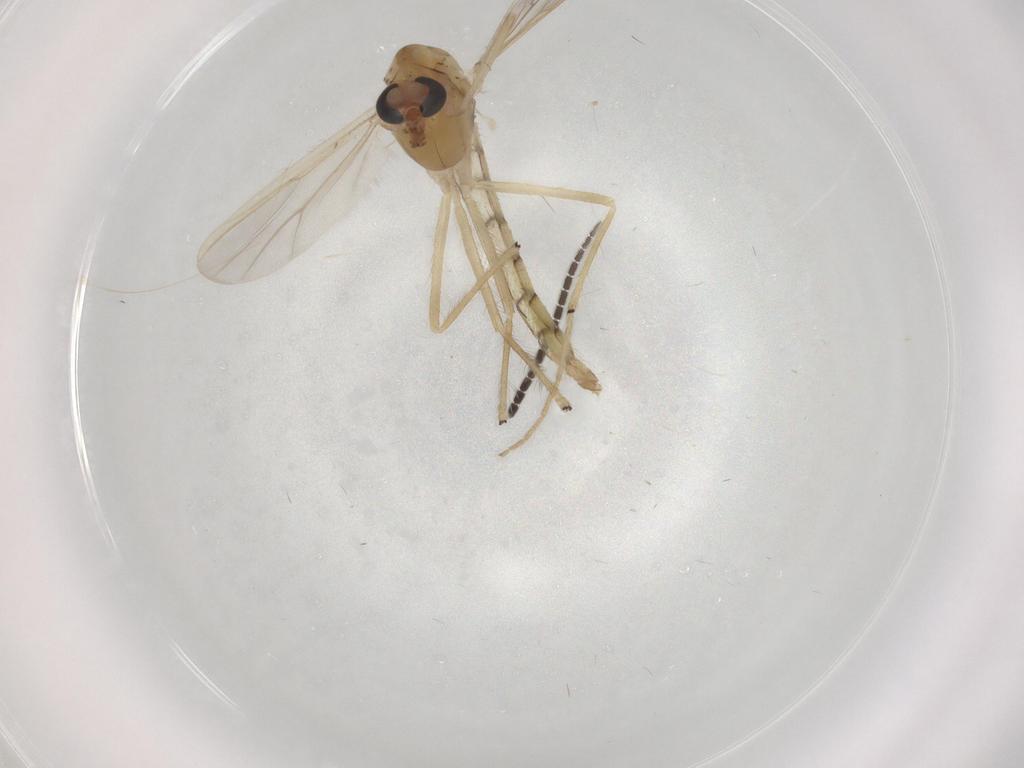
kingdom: Animalia
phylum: Arthropoda
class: Insecta
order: Diptera
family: Chironomidae
